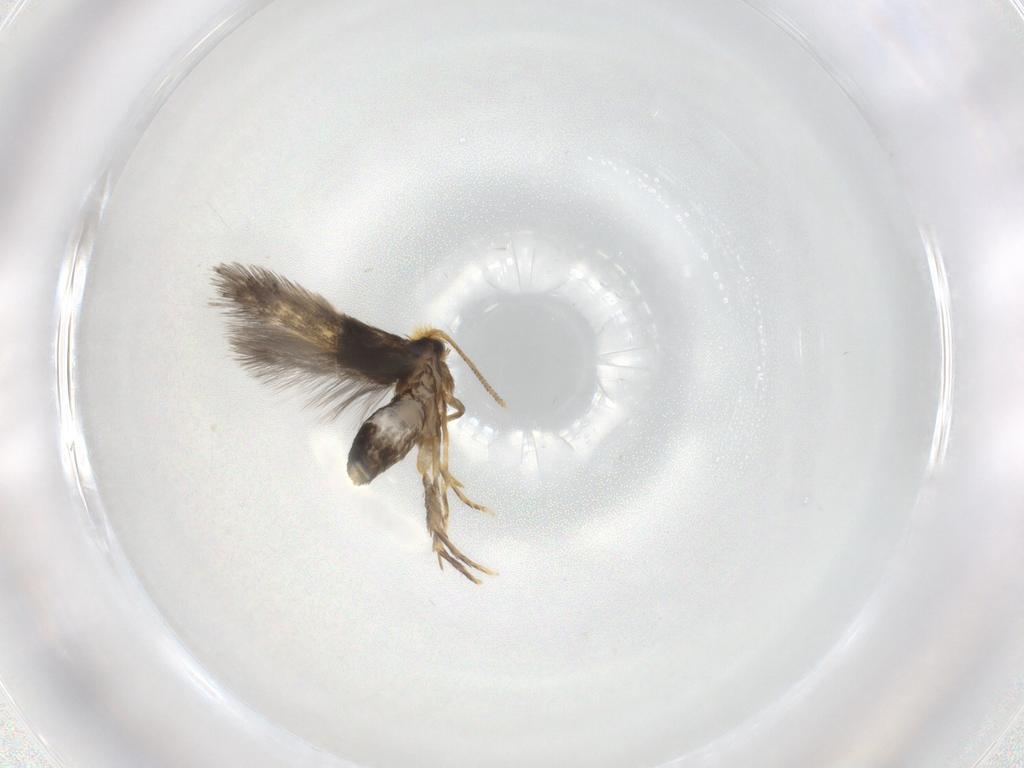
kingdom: Animalia
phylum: Arthropoda
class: Insecta
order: Lepidoptera
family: Nepticulidae
